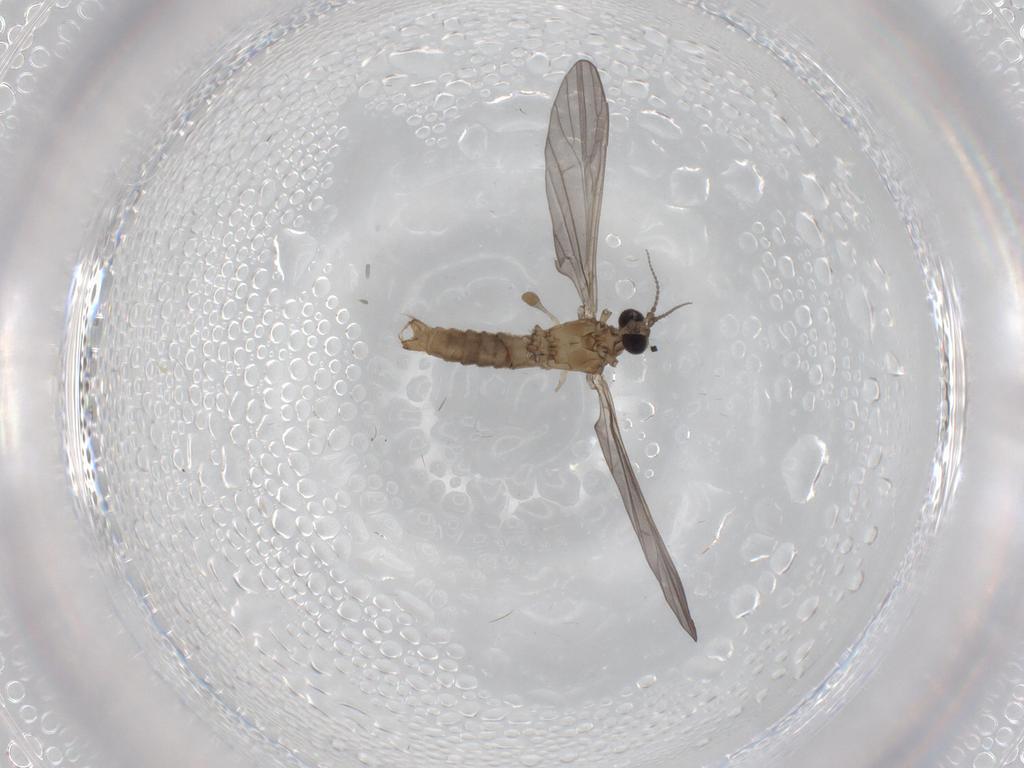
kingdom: Animalia
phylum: Arthropoda
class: Insecta
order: Diptera
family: Limoniidae
